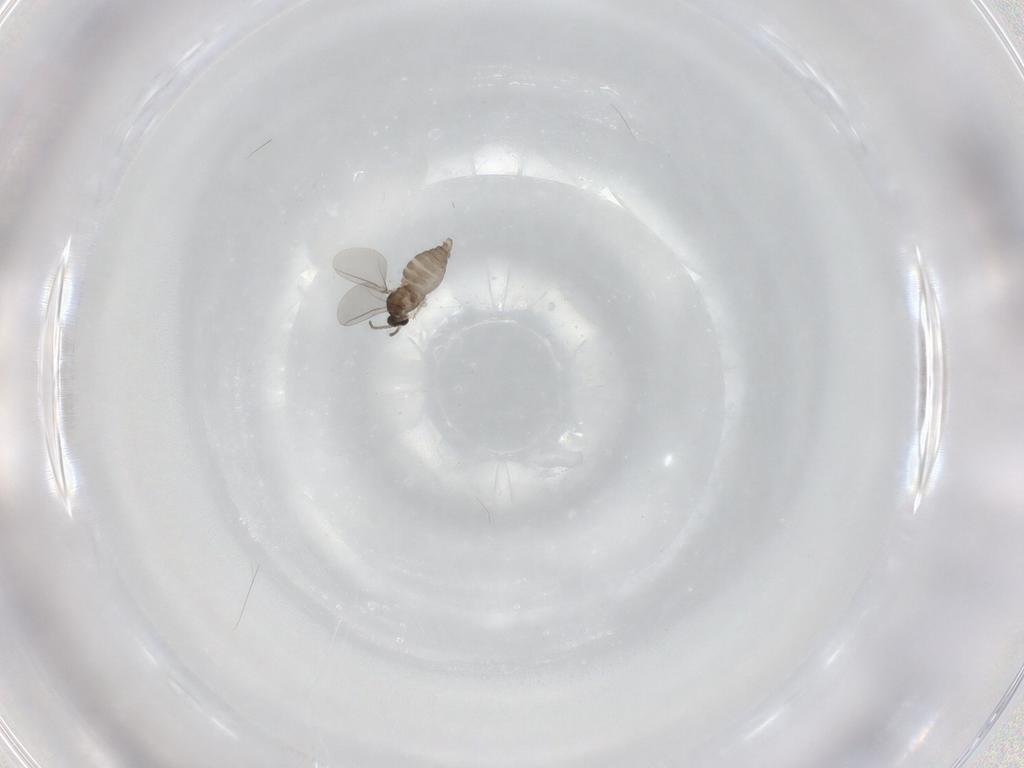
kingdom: Animalia
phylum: Arthropoda
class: Insecta
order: Diptera
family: Cecidomyiidae
